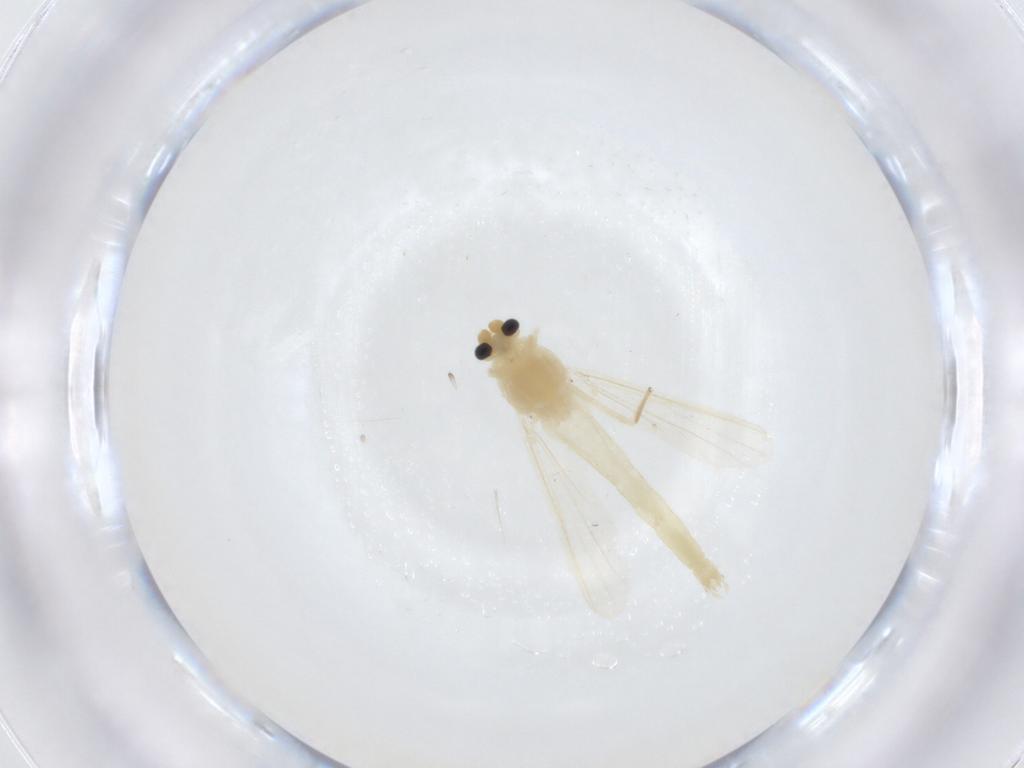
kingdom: Animalia
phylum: Arthropoda
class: Insecta
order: Diptera
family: Chironomidae
